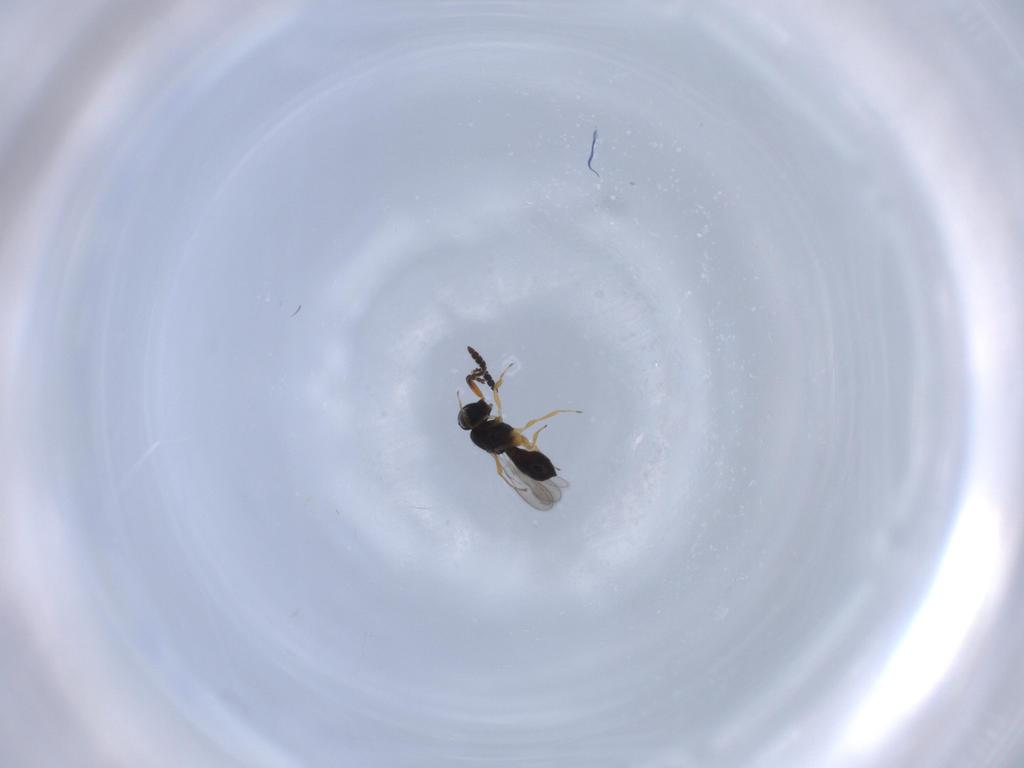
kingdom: Animalia
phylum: Arthropoda
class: Insecta
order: Hymenoptera
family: Scelionidae
